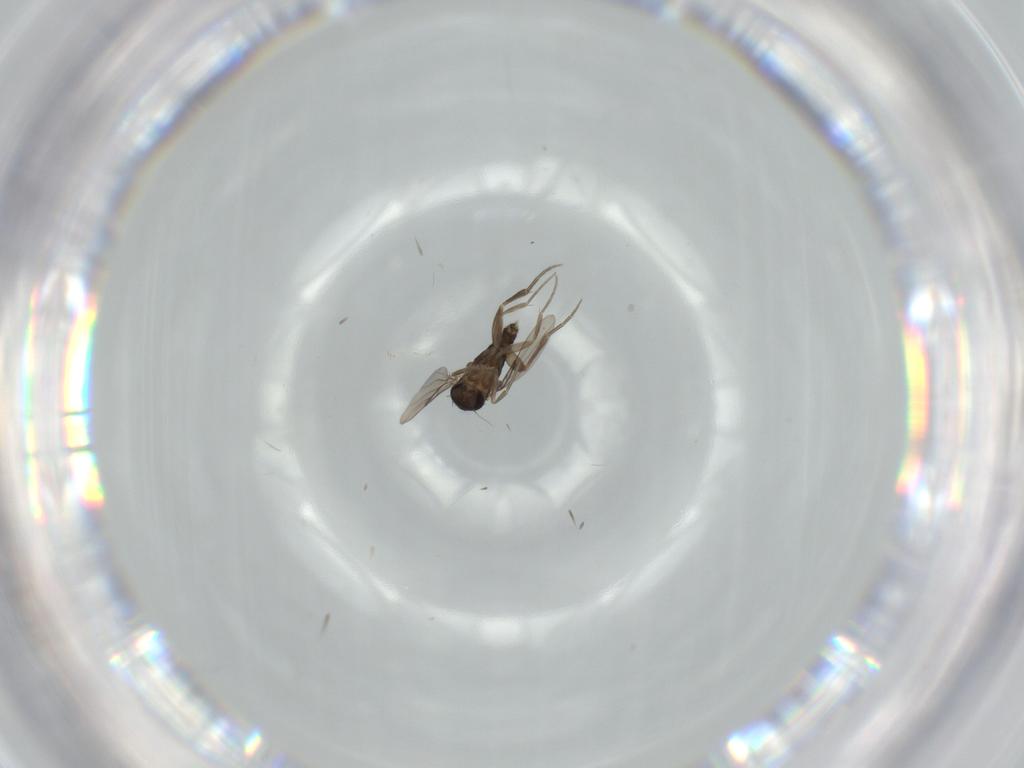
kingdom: Animalia
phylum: Arthropoda
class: Insecta
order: Diptera
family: Phoridae
